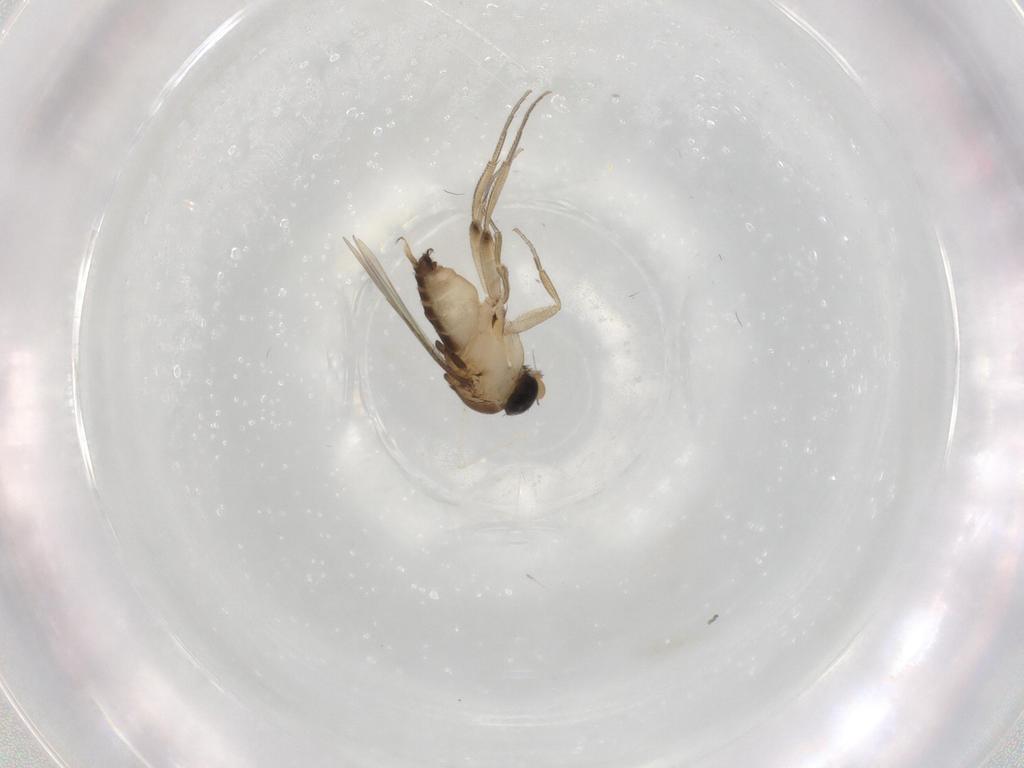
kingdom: Animalia
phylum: Arthropoda
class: Insecta
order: Diptera
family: Phoridae
